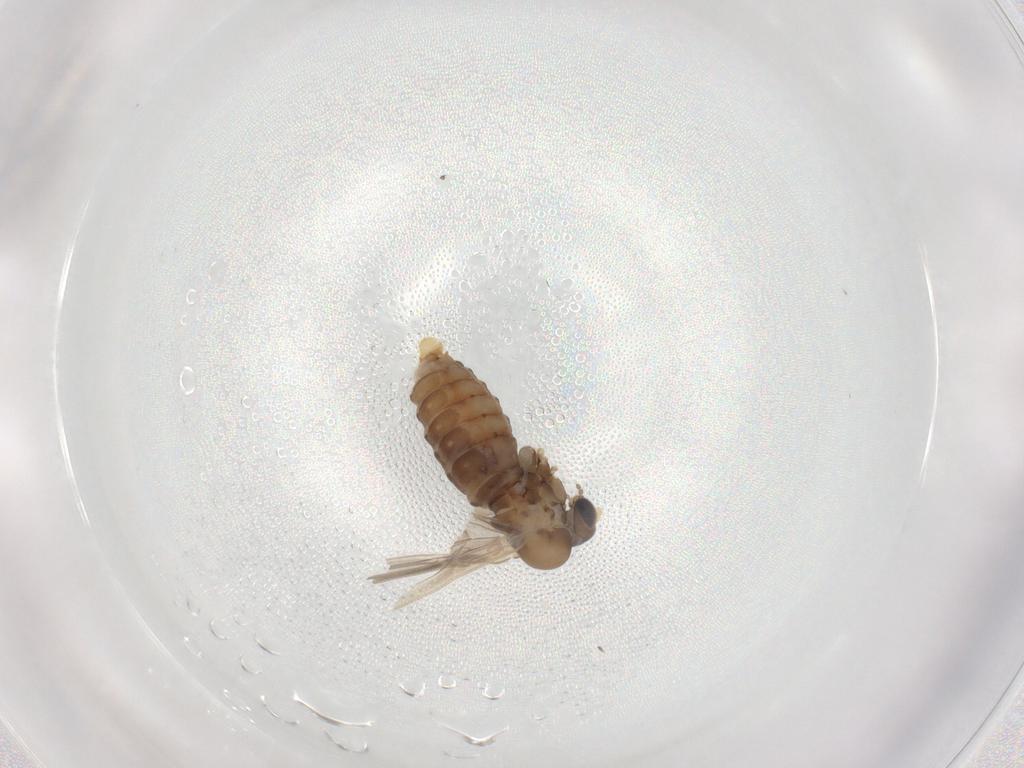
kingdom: Animalia
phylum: Arthropoda
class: Insecta
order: Diptera
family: Psychodidae
